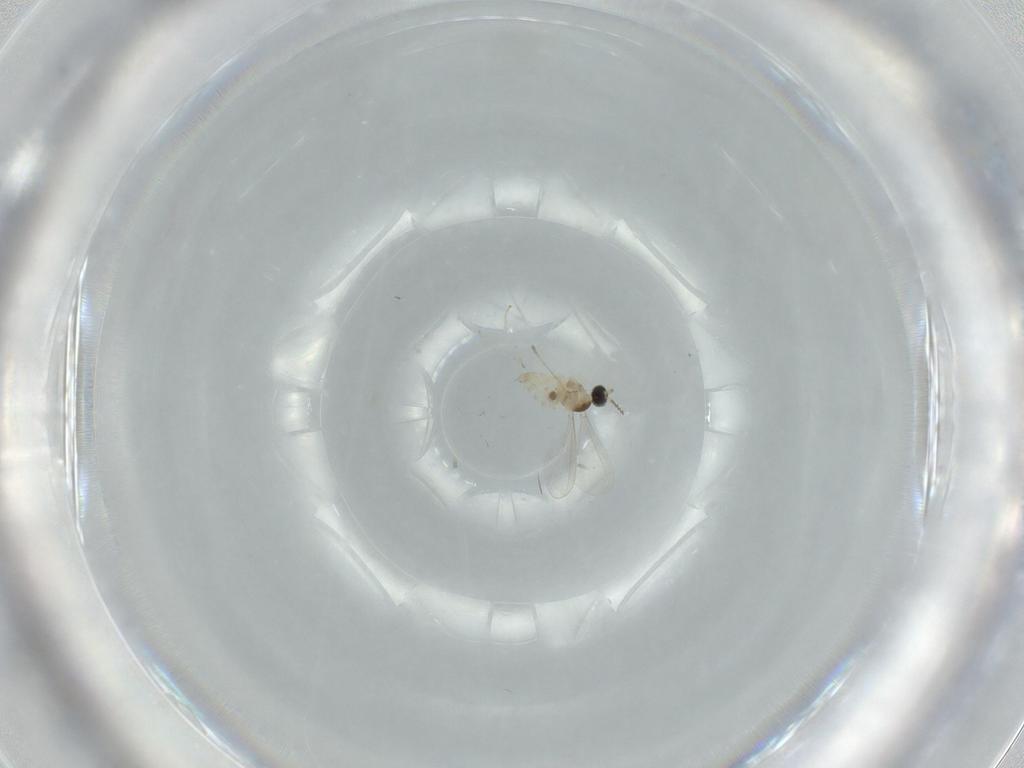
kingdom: Animalia
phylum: Arthropoda
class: Insecta
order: Diptera
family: Cecidomyiidae
